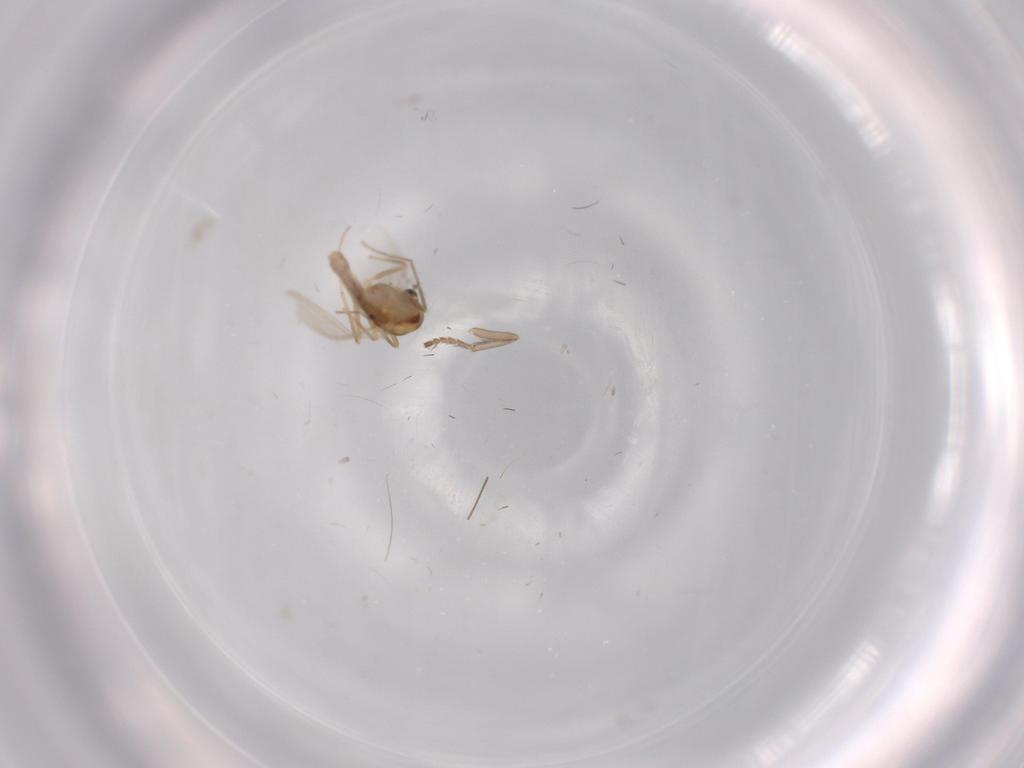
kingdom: Animalia
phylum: Arthropoda
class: Insecta
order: Diptera
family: Psychodidae
